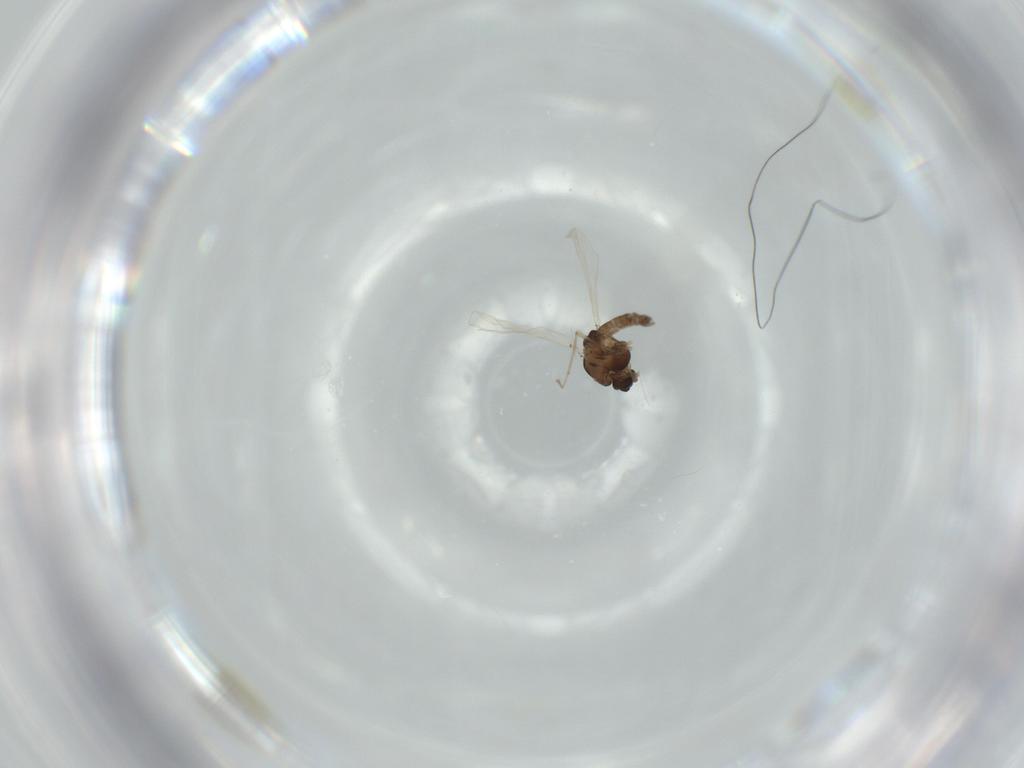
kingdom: Animalia
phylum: Arthropoda
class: Insecta
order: Diptera
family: Chironomidae
